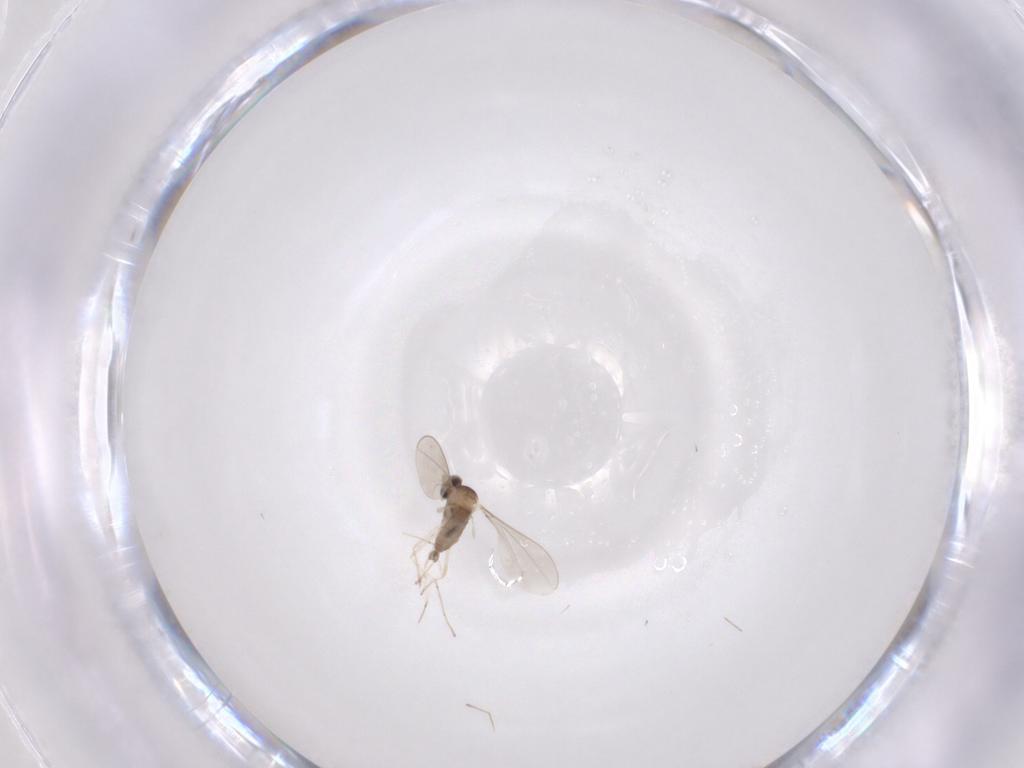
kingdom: Animalia
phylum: Arthropoda
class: Insecta
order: Diptera
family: Cecidomyiidae
